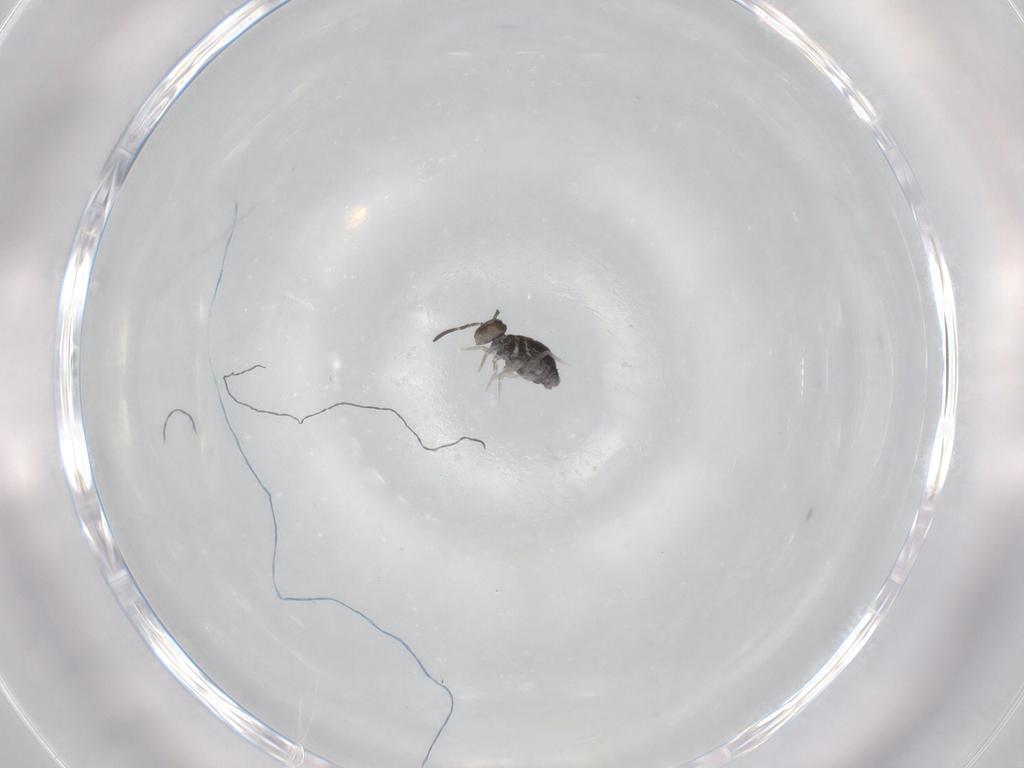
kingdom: Animalia
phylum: Arthropoda
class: Collembola
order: Symphypleona
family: Katiannidae
